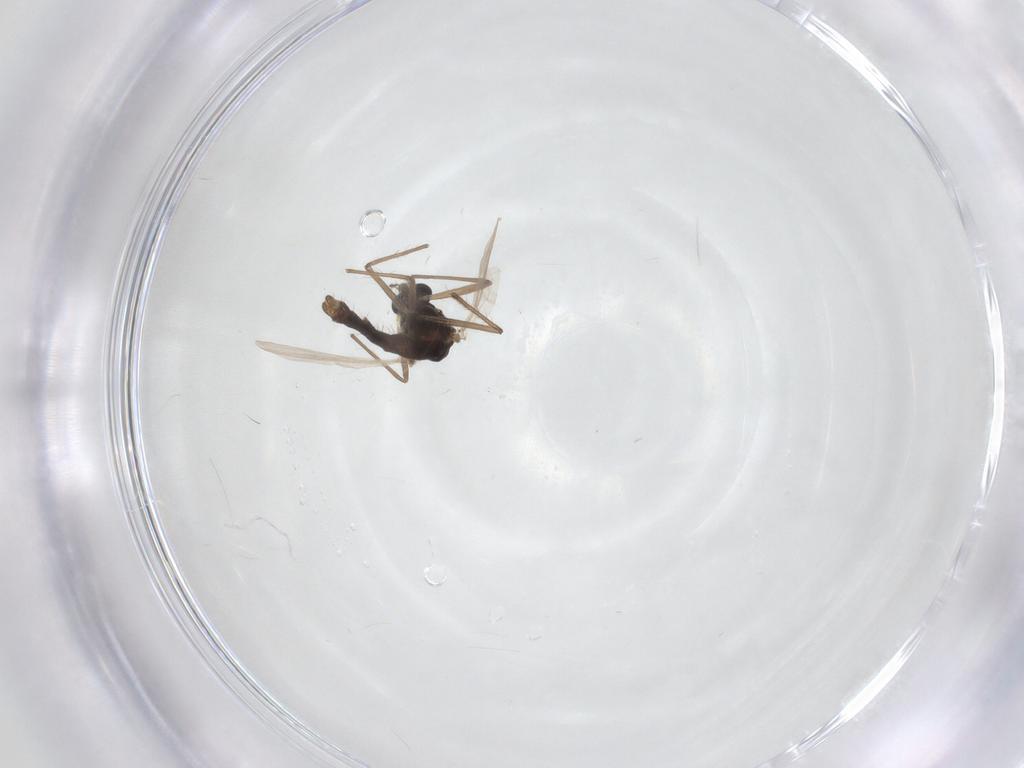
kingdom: Animalia
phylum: Arthropoda
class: Insecta
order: Diptera
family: Chironomidae
